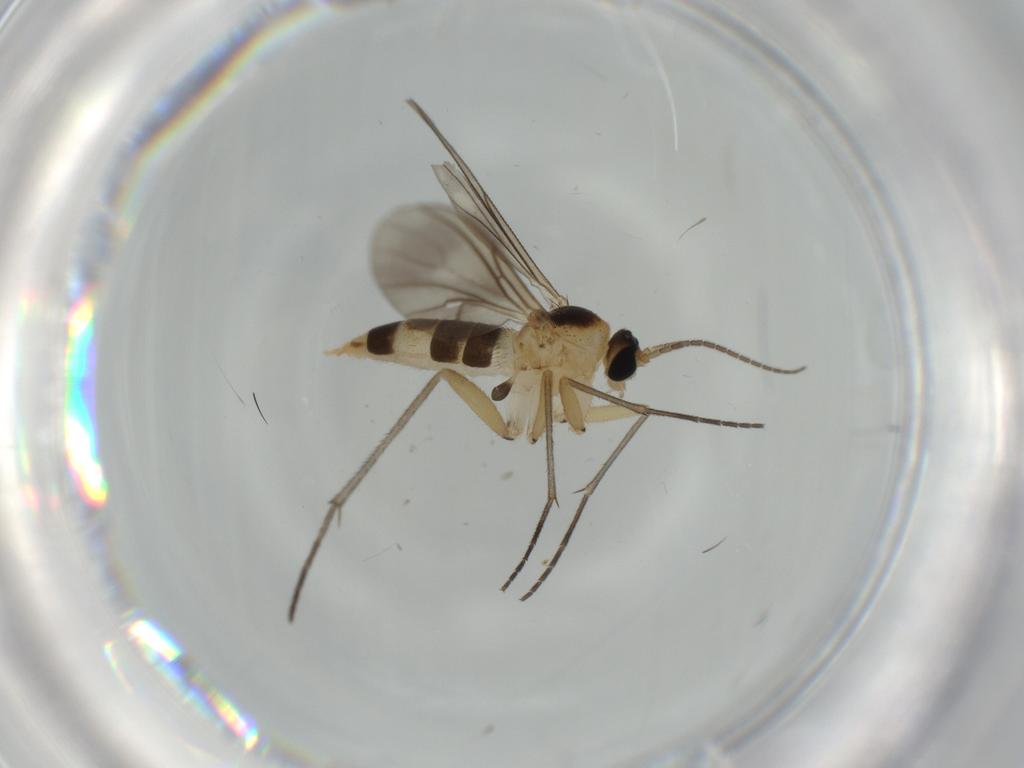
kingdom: Animalia
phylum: Arthropoda
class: Insecta
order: Diptera
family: Sciaridae
